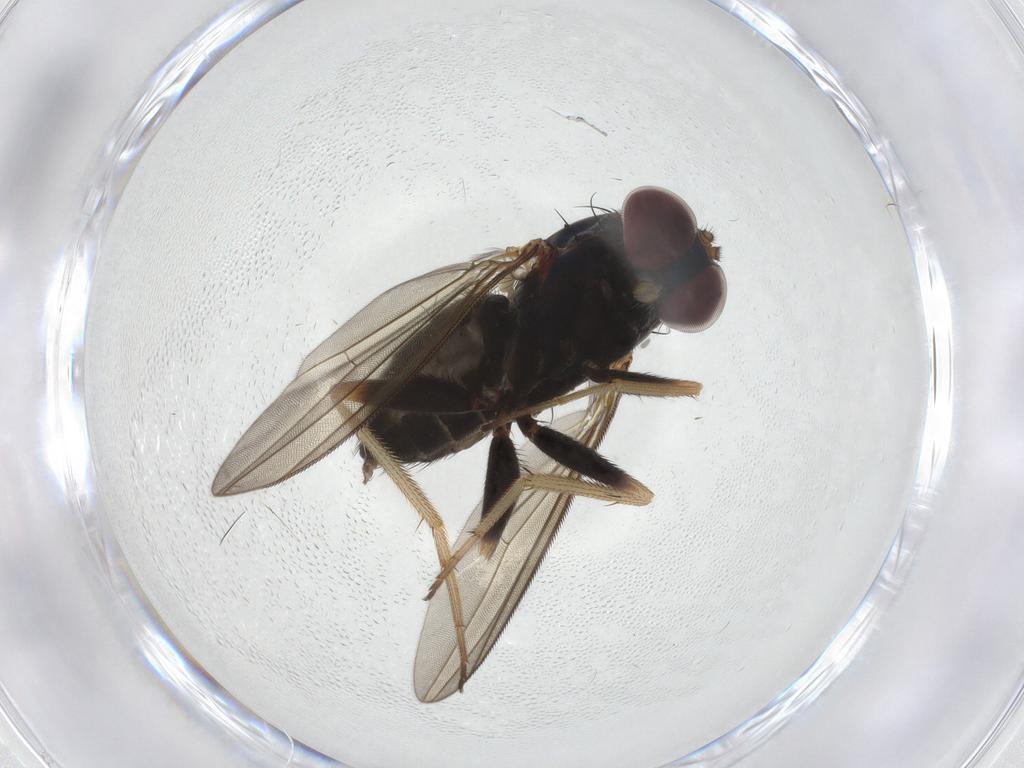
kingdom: Animalia
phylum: Arthropoda
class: Insecta
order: Diptera
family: Dolichopodidae
